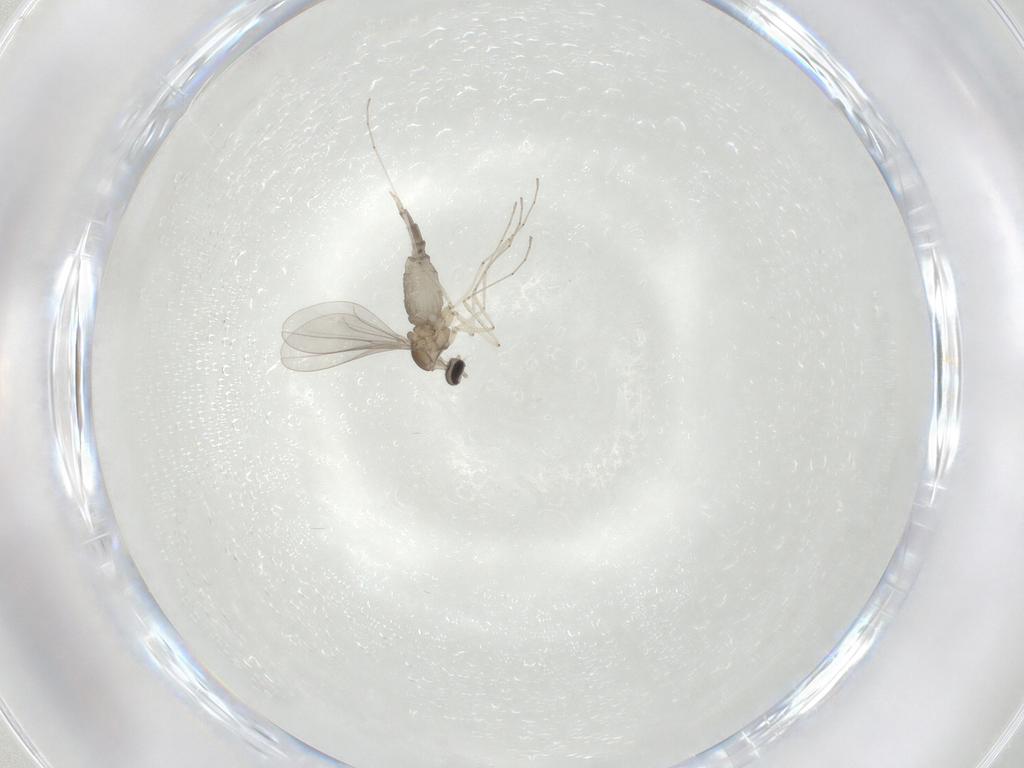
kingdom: Animalia
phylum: Arthropoda
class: Insecta
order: Diptera
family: Cecidomyiidae
